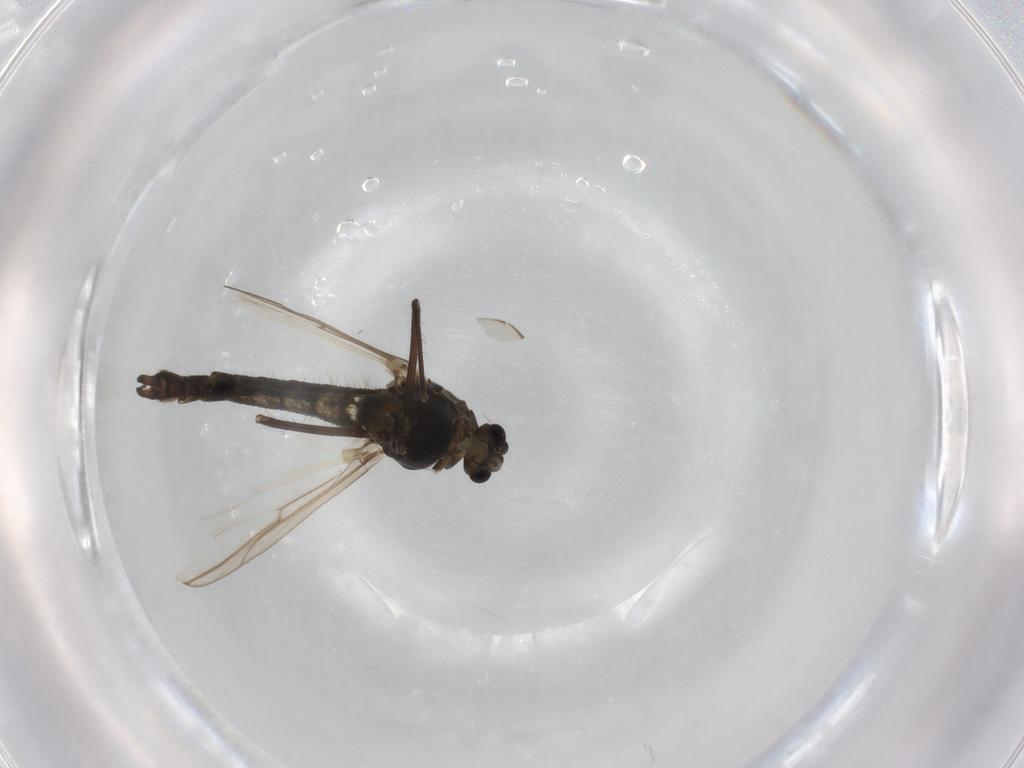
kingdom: Animalia
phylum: Arthropoda
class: Insecta
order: Diptera
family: Chironomidae
